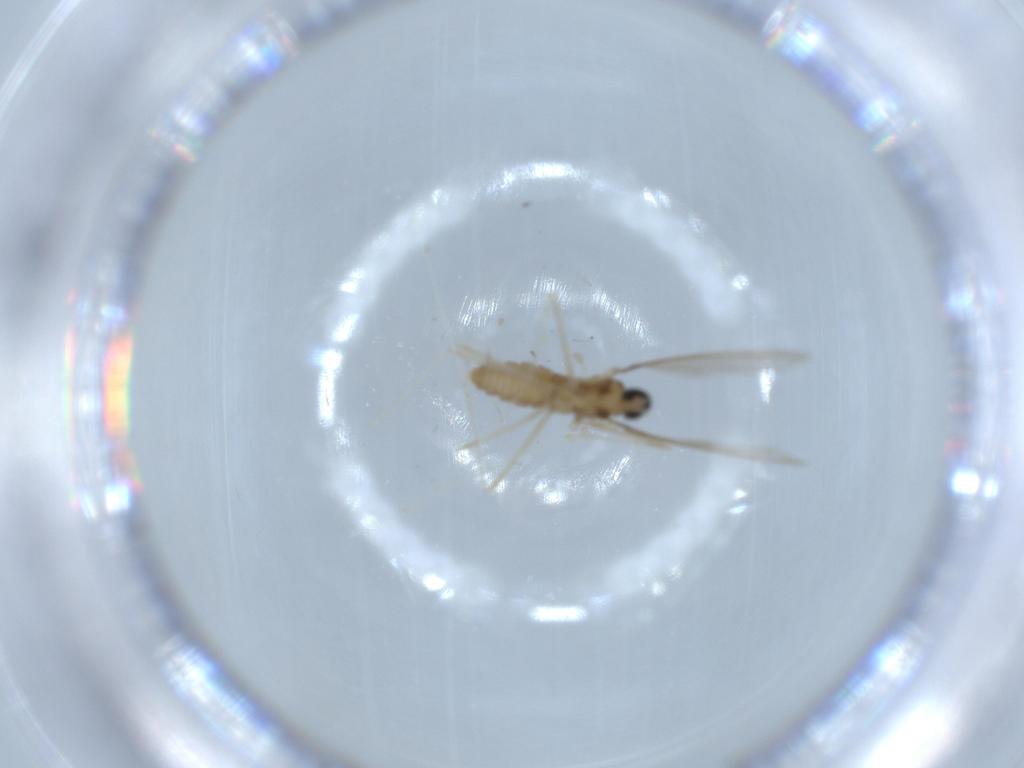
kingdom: Animalia
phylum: Arthropoda
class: Insecta
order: Diptera
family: Cecidomyiidae
